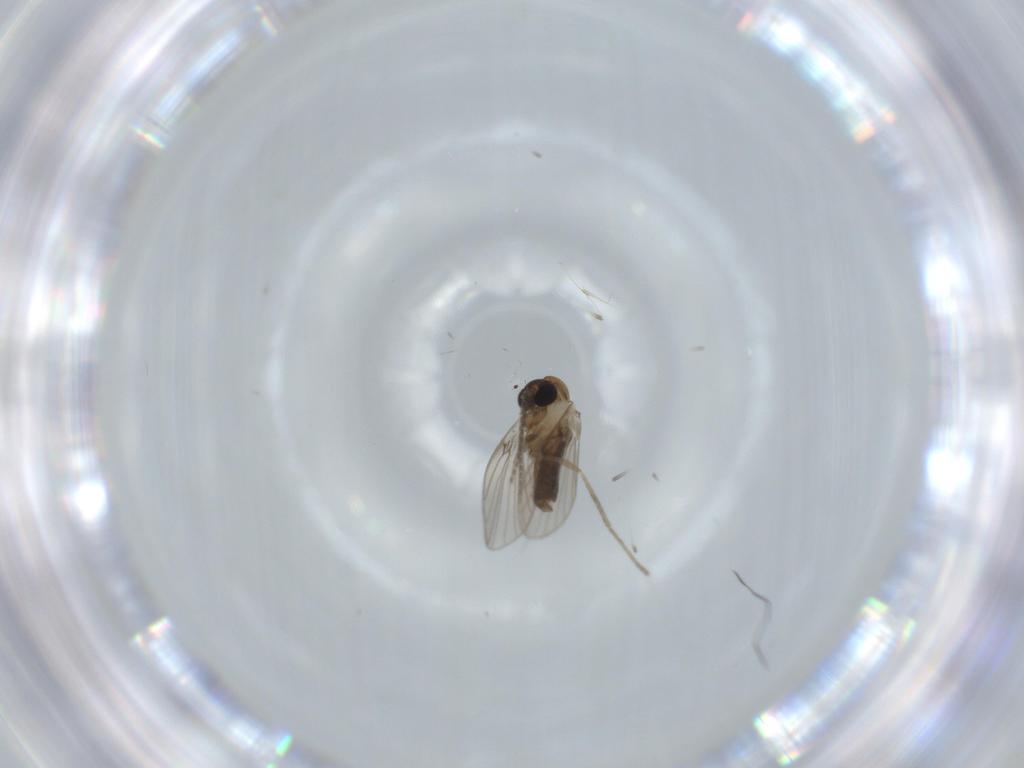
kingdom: Animalia
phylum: Arthropoda
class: Insecta
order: Diptera
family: Psychodidae
